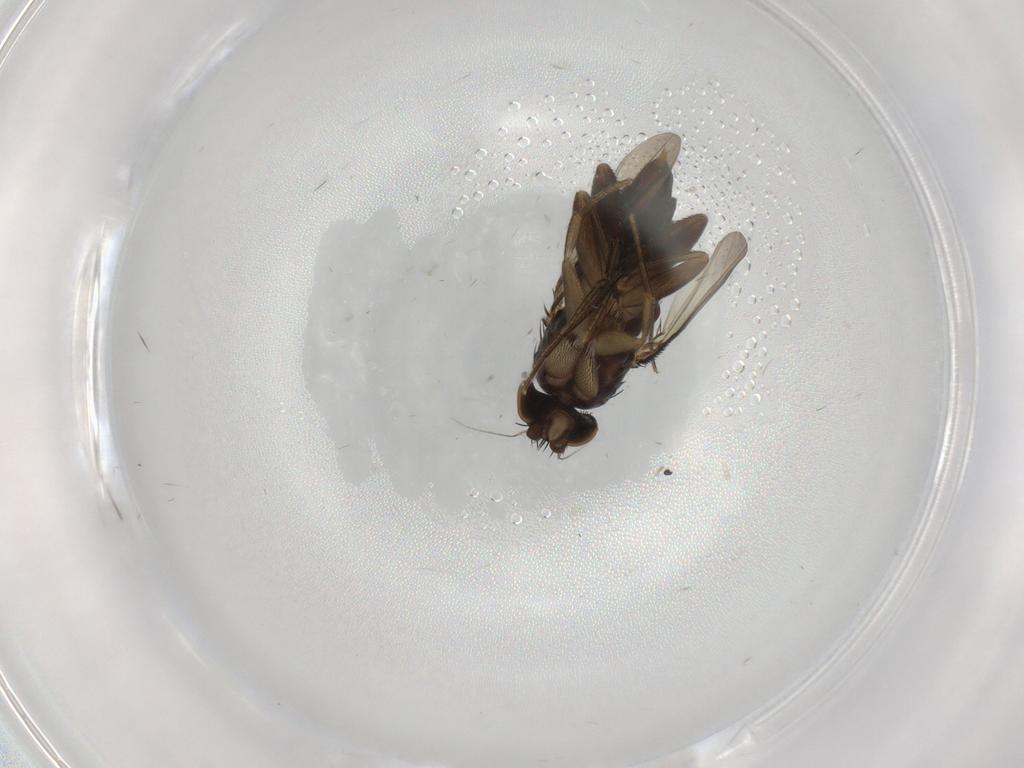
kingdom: Animalia
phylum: Arthropoda
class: Insecta
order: Diptera
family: Phoridae
